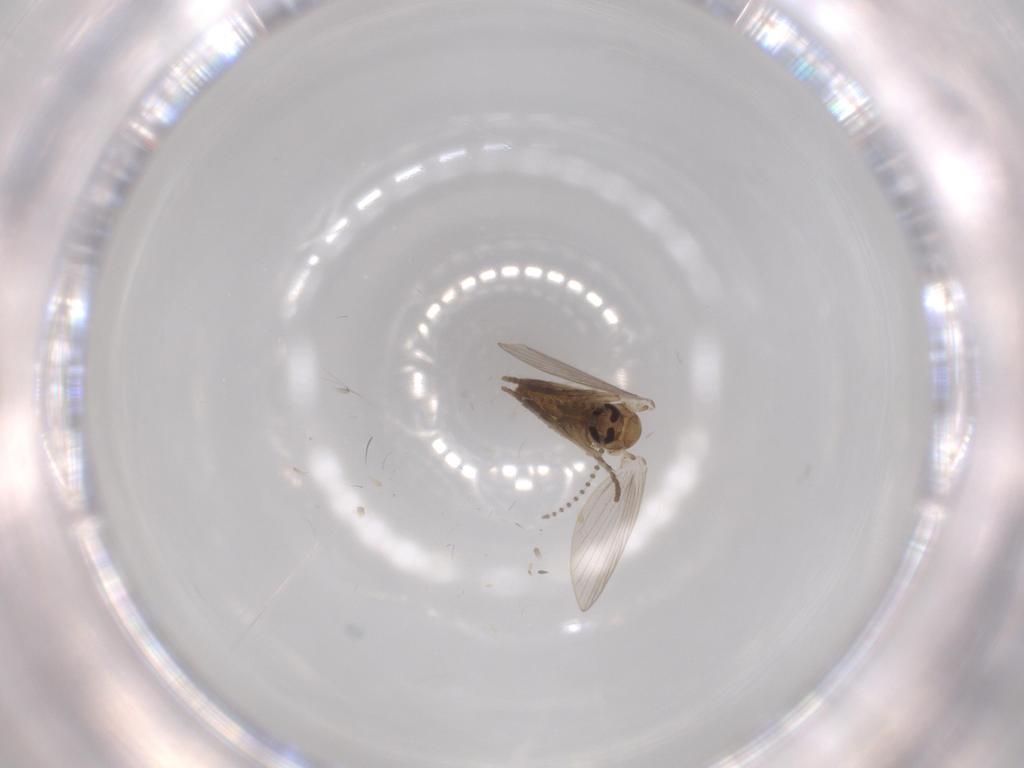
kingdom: Animalia
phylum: Arthropoda
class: Insecta
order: Diptera
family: Psychodidae
